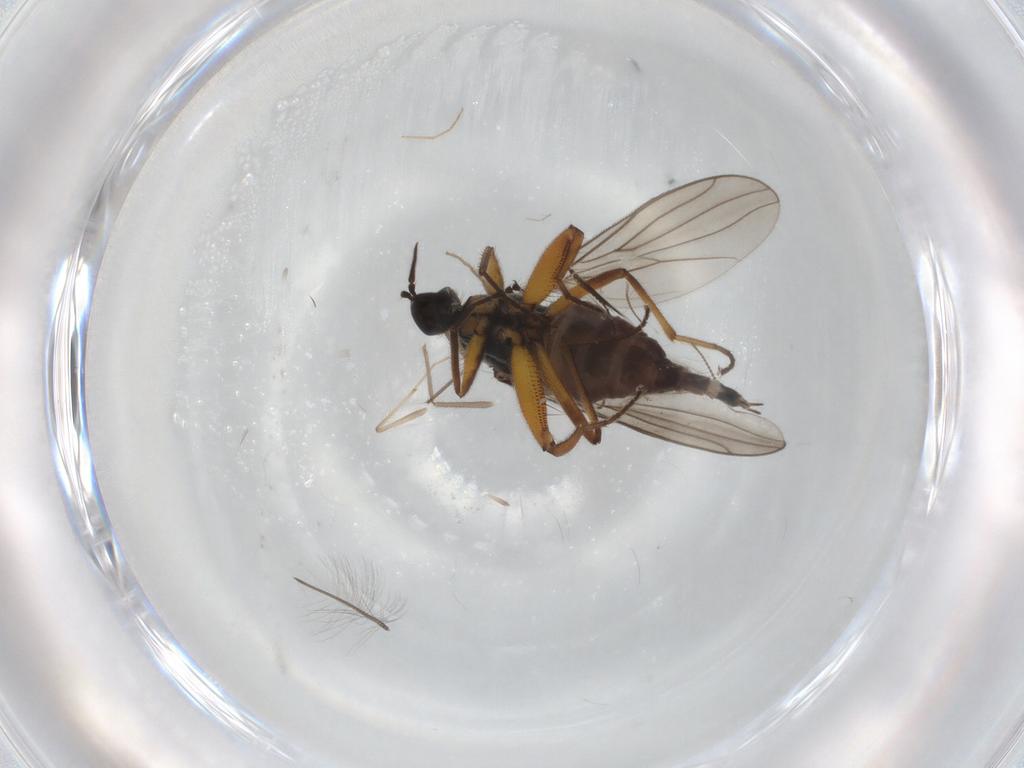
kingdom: Animalia
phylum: Arthropoda
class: Insecta
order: Diptera
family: Hybotidae
